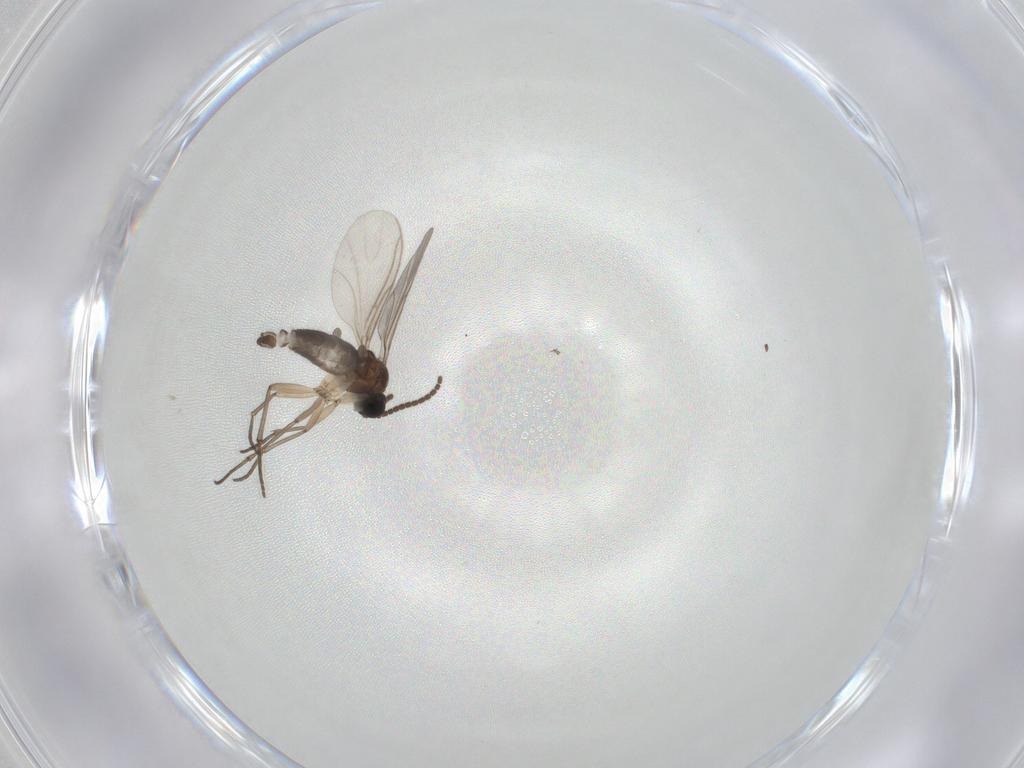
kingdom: Animalia
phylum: Arthropoda
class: Insecta
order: Diptera
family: Sciaridae
